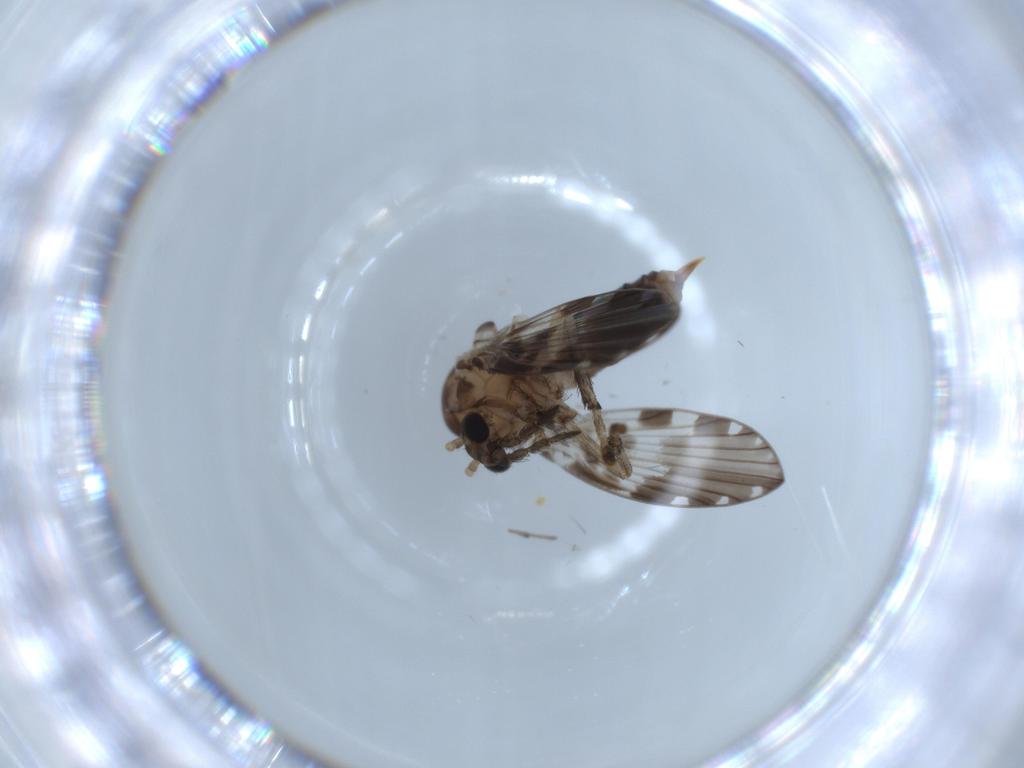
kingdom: Animalia
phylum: Arthropoda
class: Insecta
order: Diptera
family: Psychodidae
